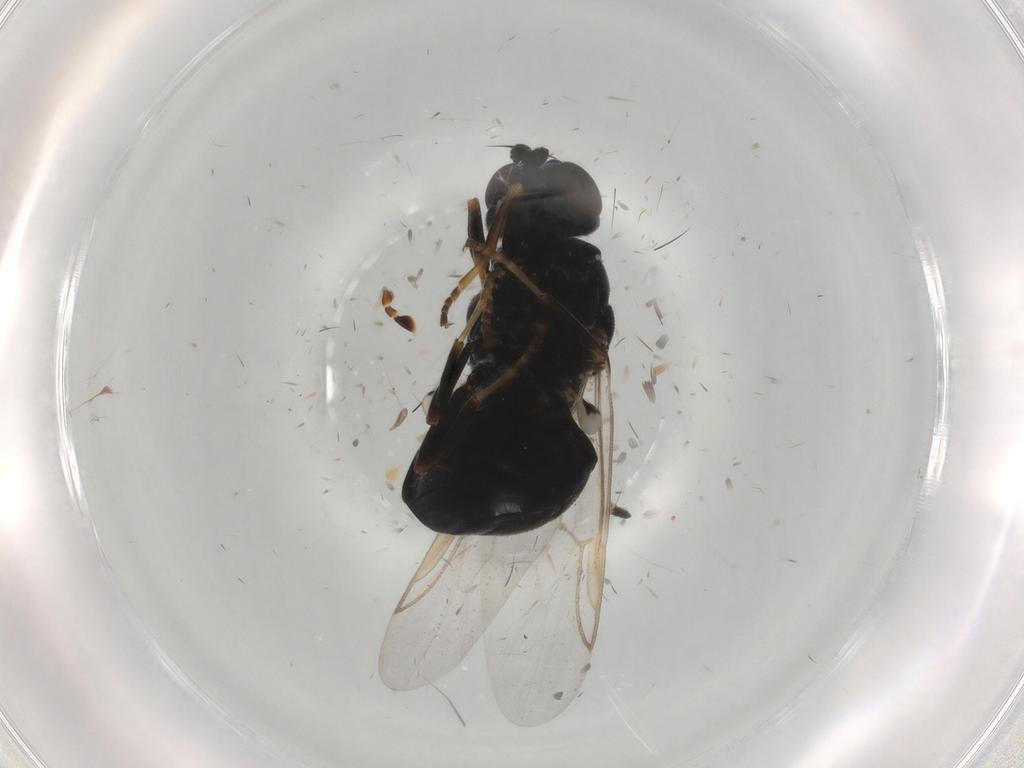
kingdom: Animalia
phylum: Arthropoda
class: Insecta
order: Diptera
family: Stratiomyidae
